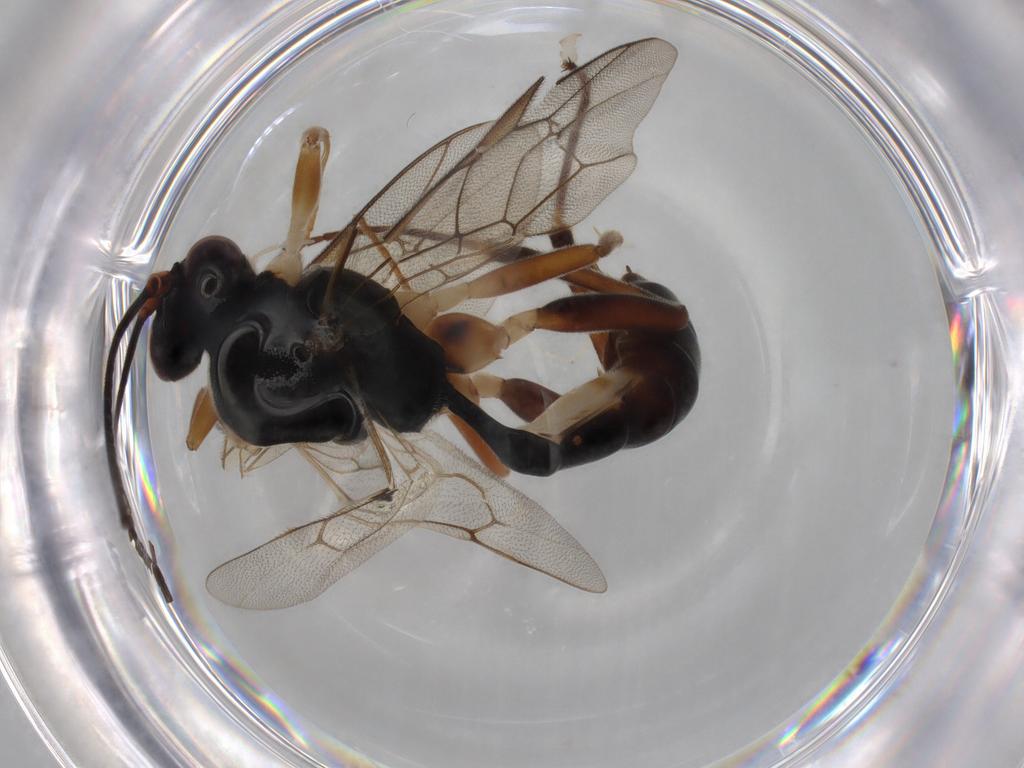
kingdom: Animalia
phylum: Arthropoda
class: Insecta
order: Hymenoptera
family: Ichneumonidae
